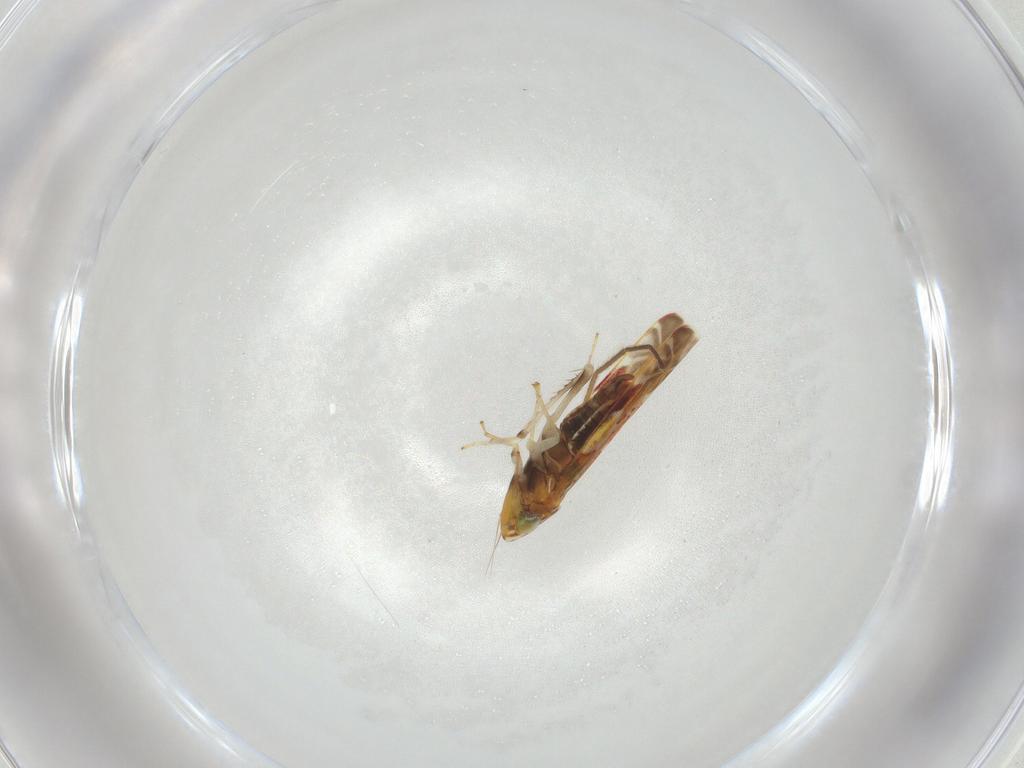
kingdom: Animalia
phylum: Arthropoda
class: Insecta
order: Hemiptera
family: Cicadellidae
